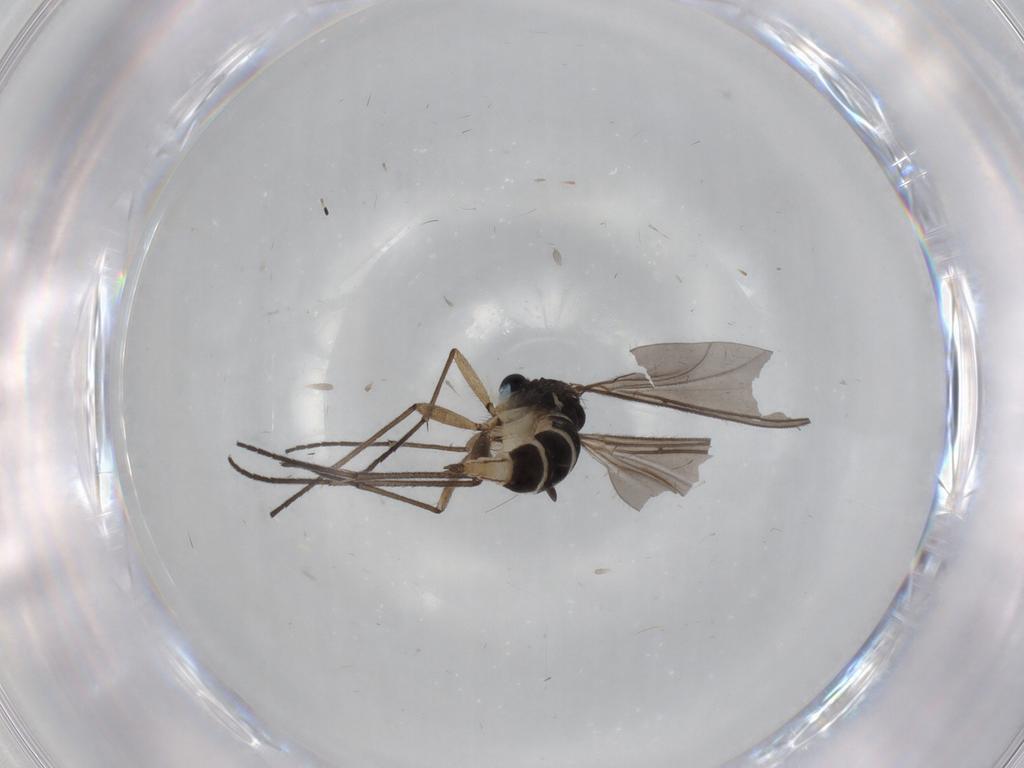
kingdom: Animalia
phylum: Arthropoda
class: Insecta
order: Diptera
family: Sciaridae
